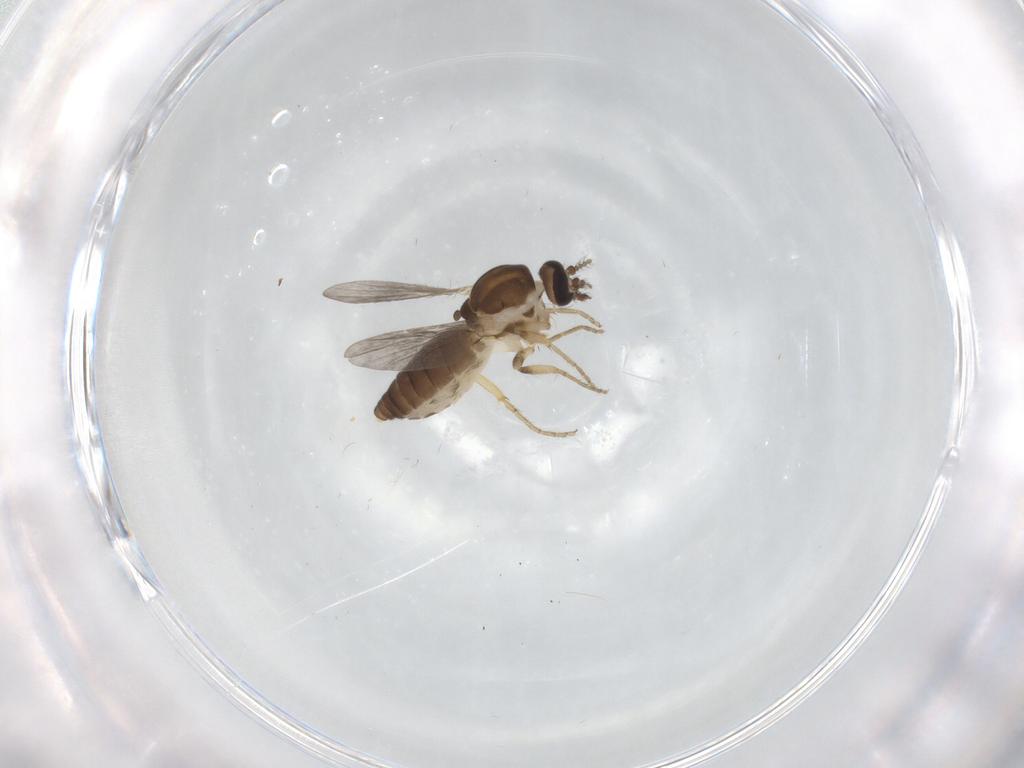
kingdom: Animalia
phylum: Arthropoda
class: Insecta
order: Diptera
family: Ceratopogonidae
